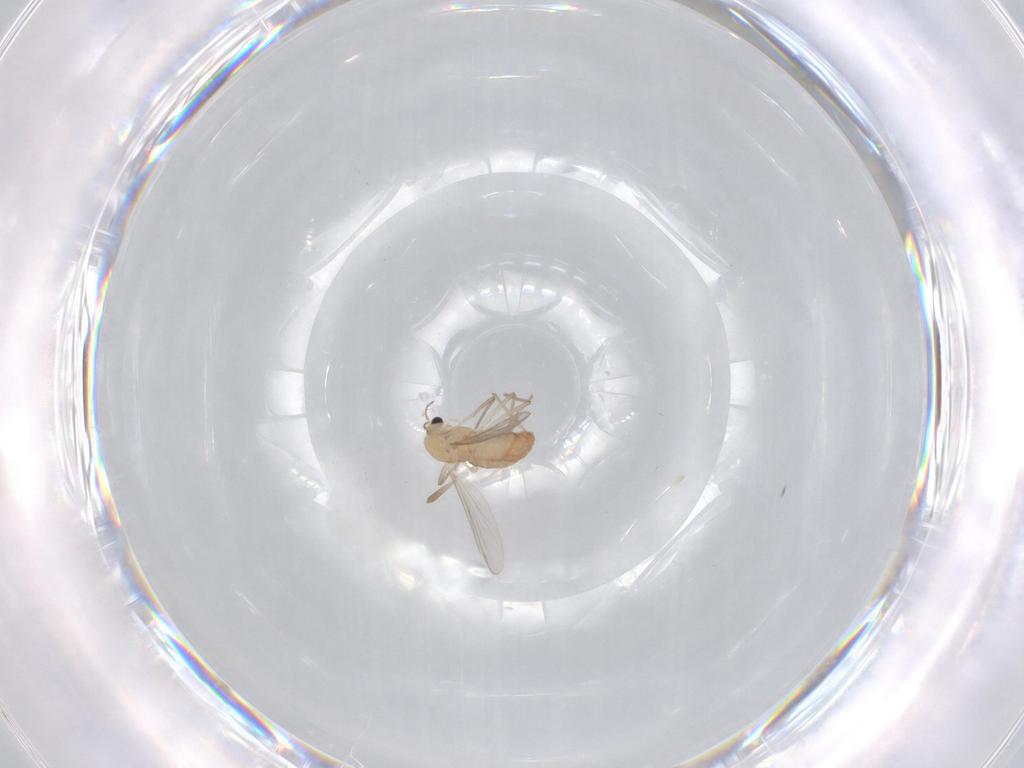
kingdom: Animalia
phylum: Arthropoda
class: Insecta
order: Diptera
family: Chironomidae
